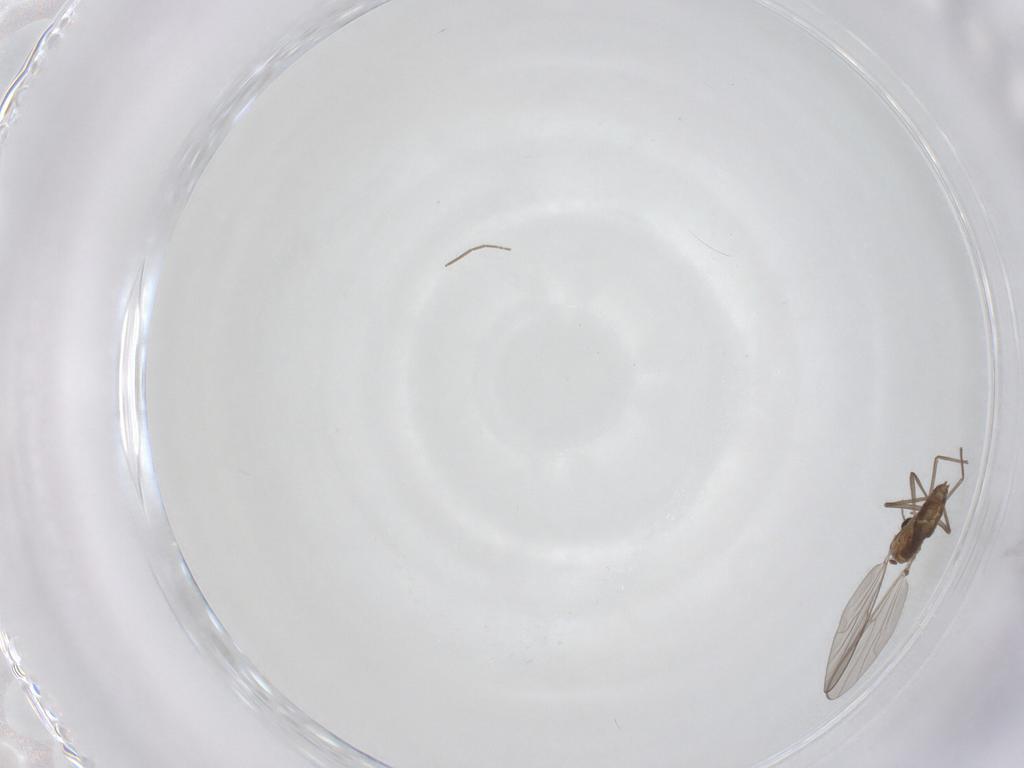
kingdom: Animalia
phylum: Arthropoda
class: Insecta
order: Diptera
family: Chironomidae
